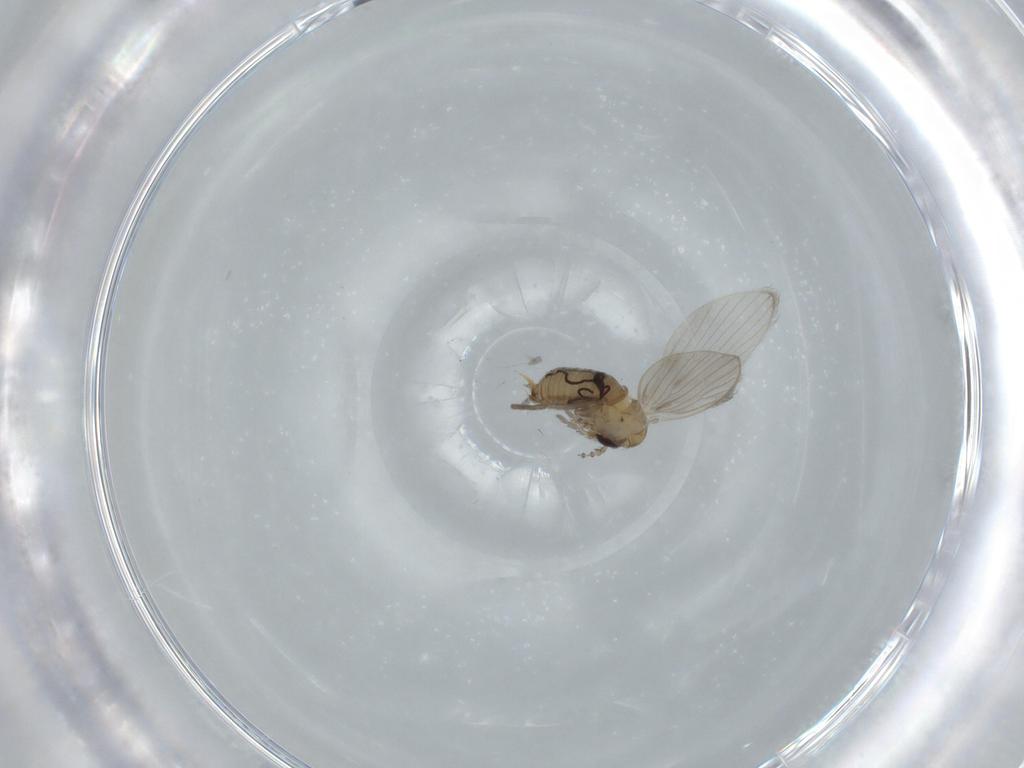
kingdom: Animalia
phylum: Arthropoda
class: Insecta
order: Diptera
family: Psychodidae
